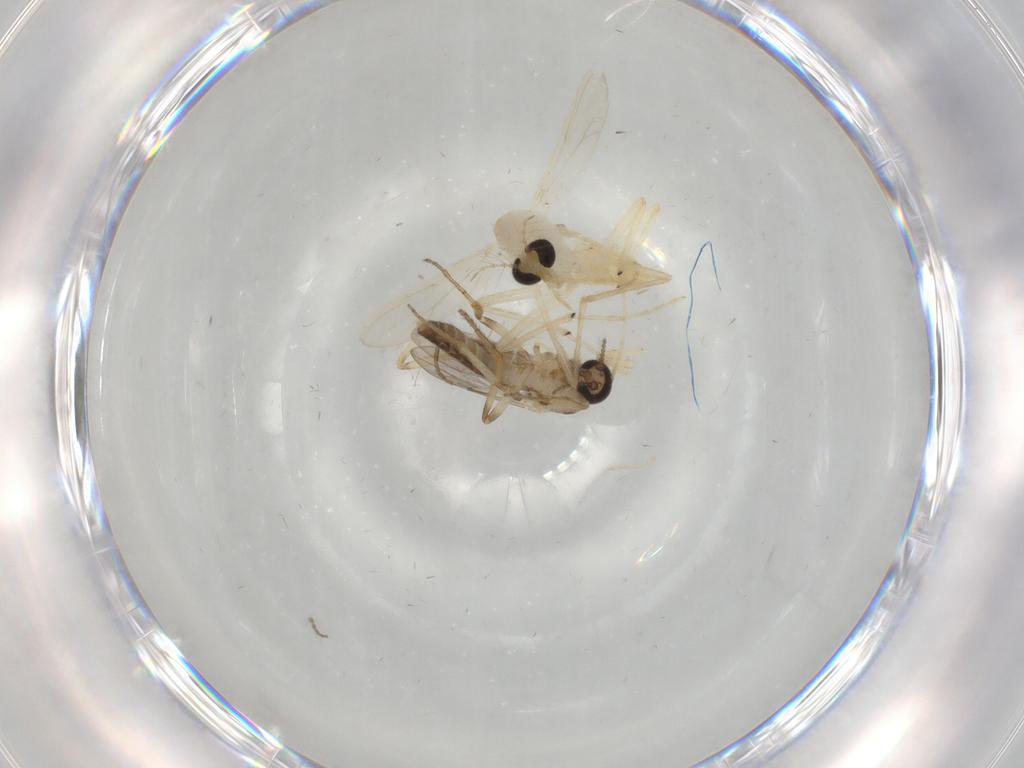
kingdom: Animalia
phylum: Arthropoda
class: Insecta
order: Diptera
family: Ceratopogonidae
